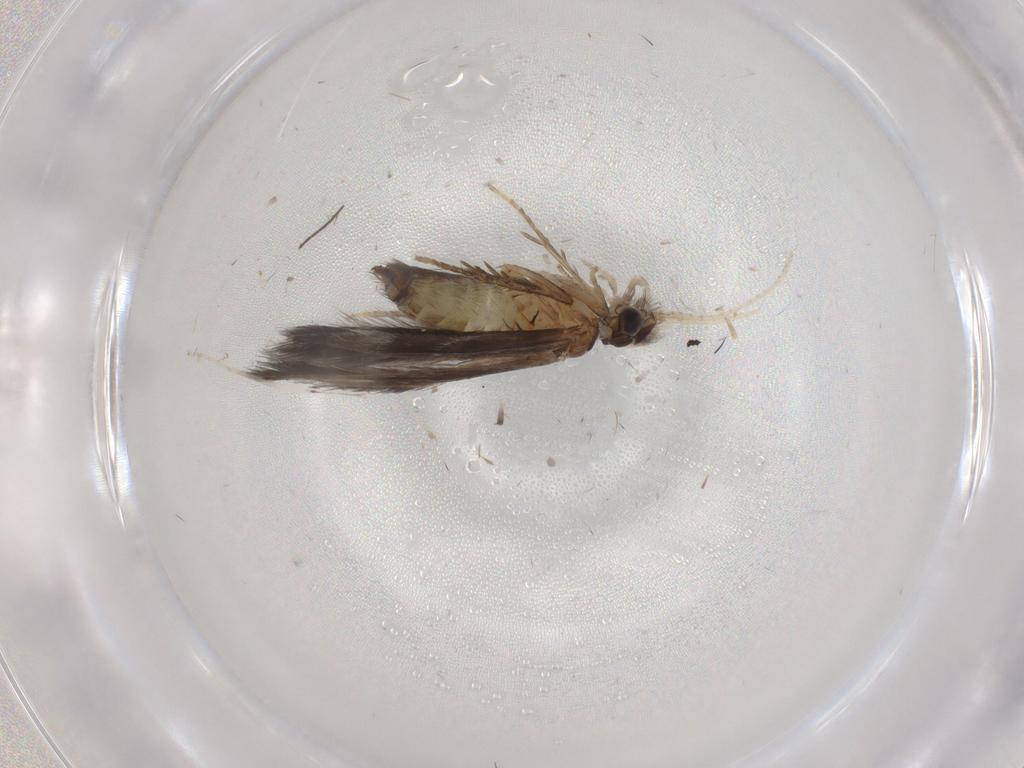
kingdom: Animalia
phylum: Arthropoda
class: Insecta
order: Trichoptera
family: Hydroptilidae
